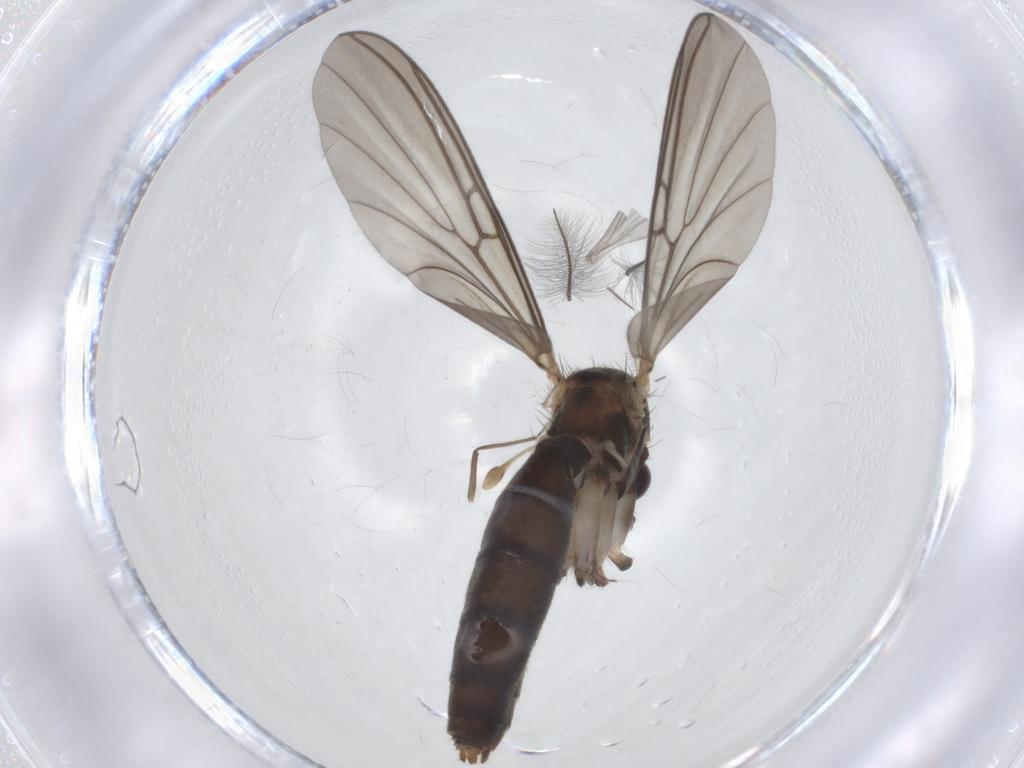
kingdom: Animalia
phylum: Arthropoda
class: Insecta
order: Diptera
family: Mycetophilidae
